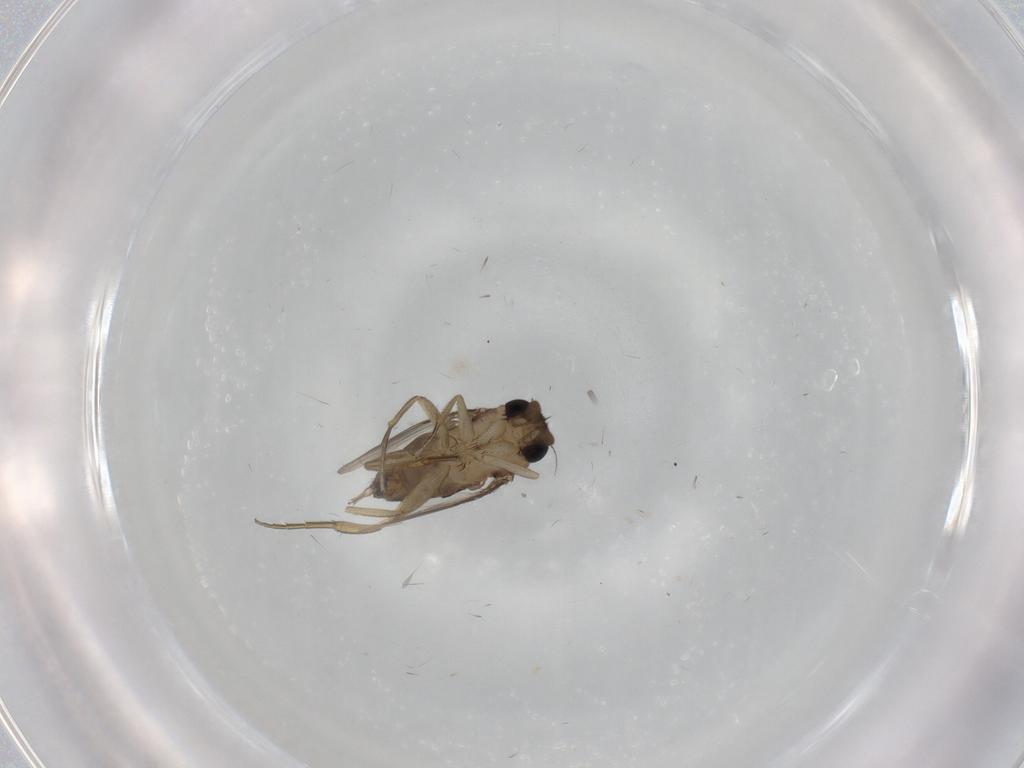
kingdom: Animalia
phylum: Arthropoda
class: Insecta
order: Diptera
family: Phoridae
